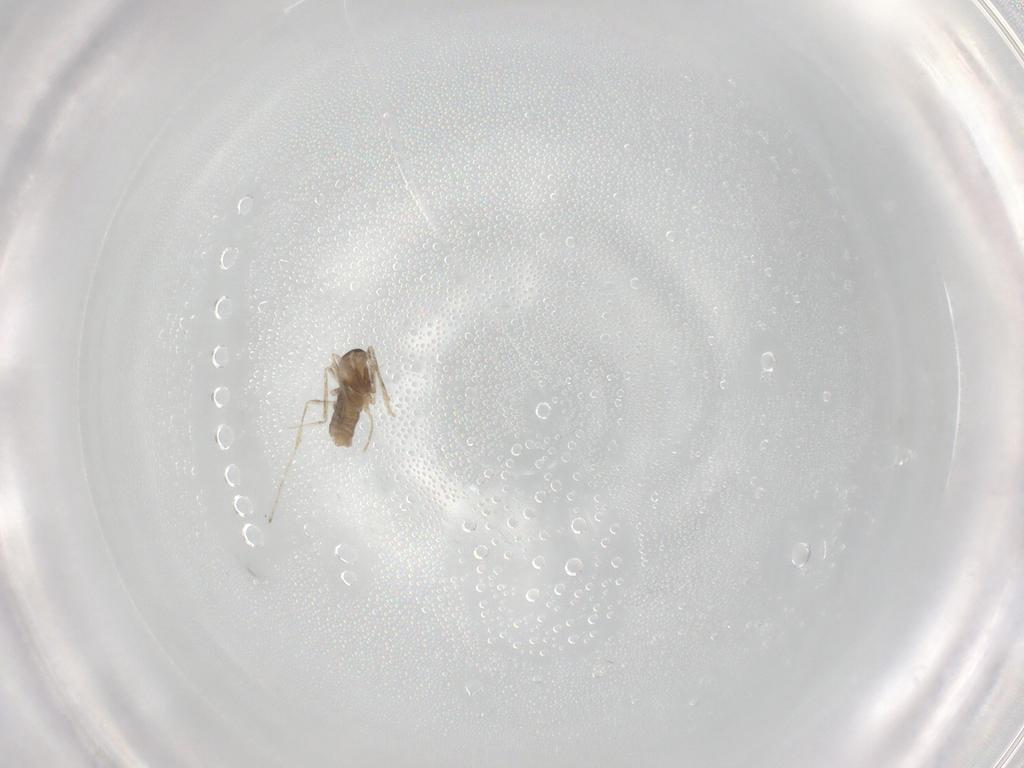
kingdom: Animalia
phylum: Arthropoda
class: Insecta
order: Diptera
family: Cecidomyiidae
